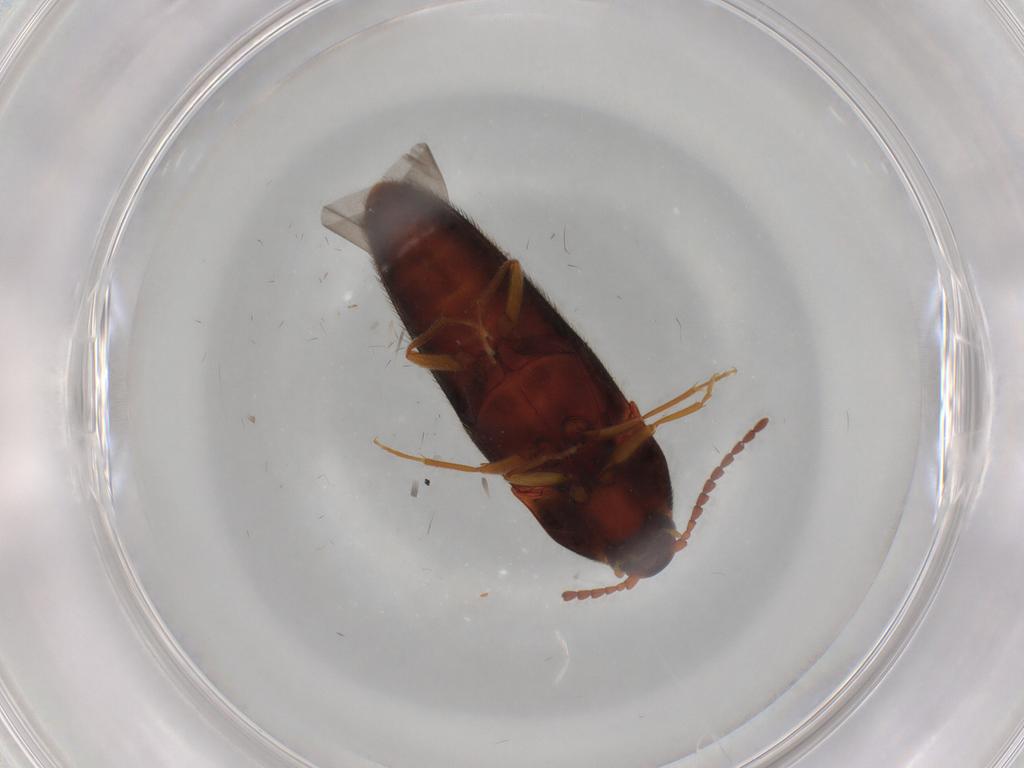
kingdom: Animalia
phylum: Arthropoda
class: Insecta
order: Coleoptera
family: Elateridae
